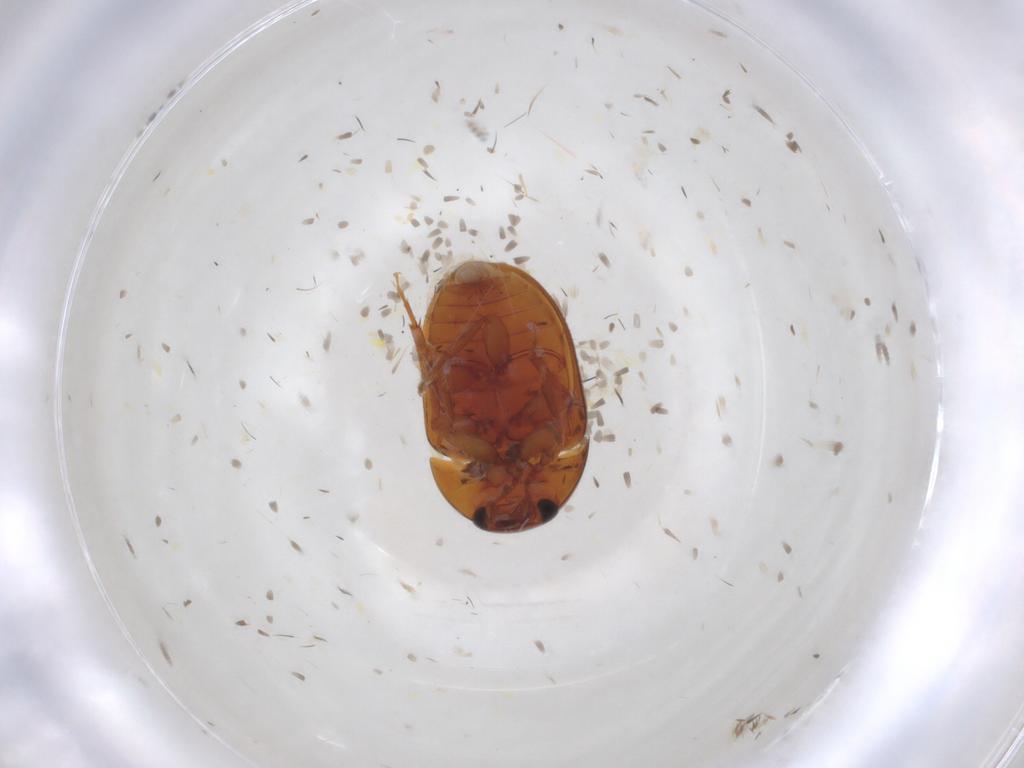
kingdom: Animalia
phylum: Arthropoda
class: Insecta
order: Coleoptera
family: Phalacridae
